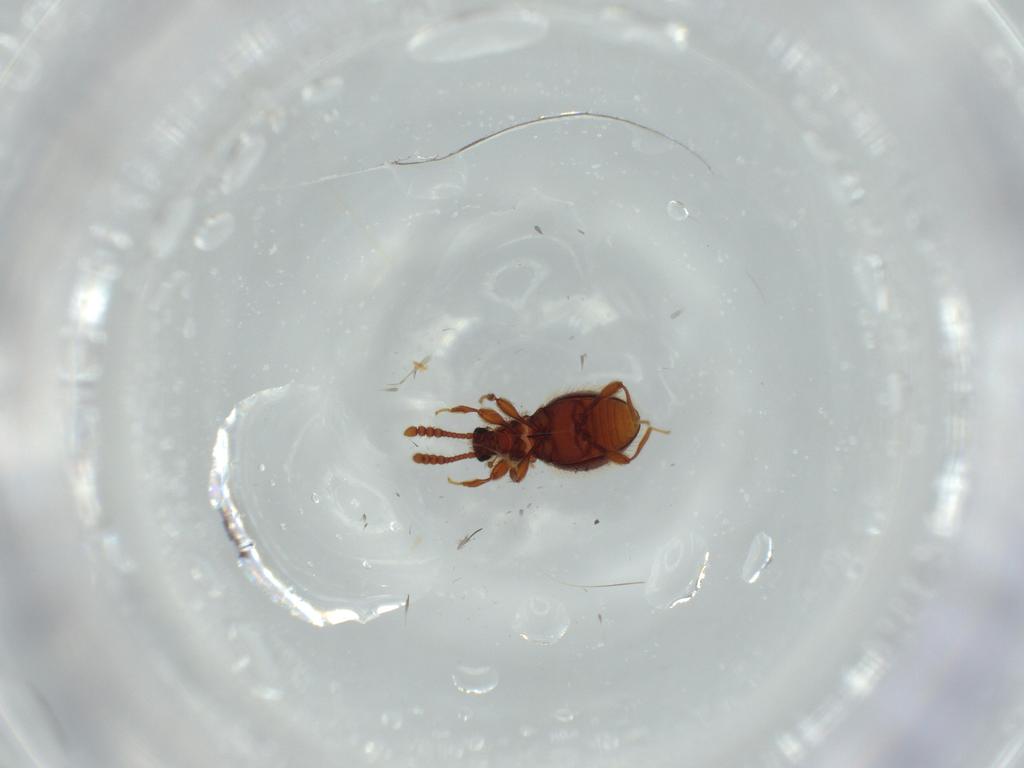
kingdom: Animalia
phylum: Arthropoda
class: Insecta
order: Coleoptera
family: Staphylinidae
